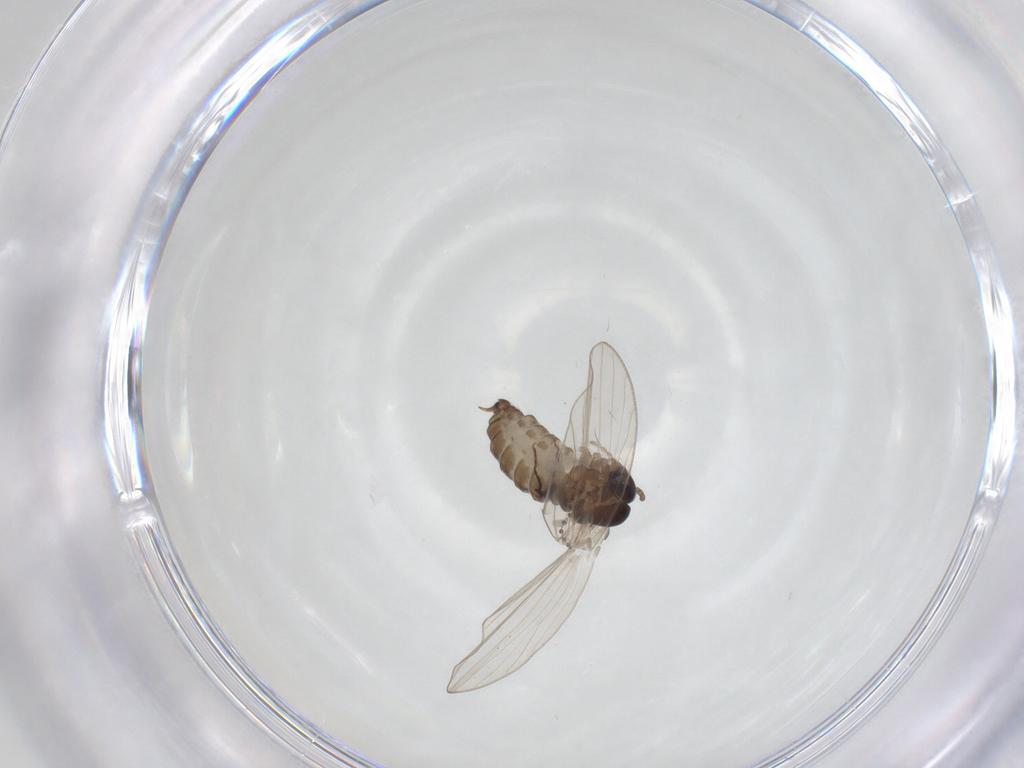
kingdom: Animalia
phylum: Arthropoda
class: Insecta
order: Diptera
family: Psychodidae
